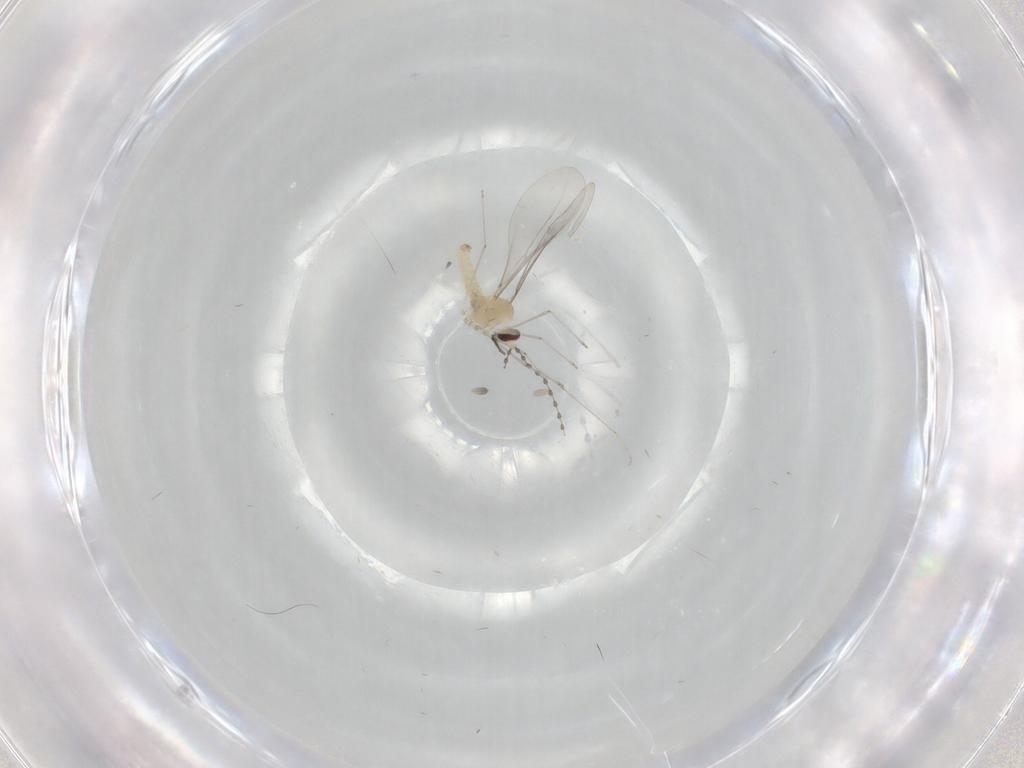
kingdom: Animalia
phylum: Arthropoda
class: Insecta
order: Diptera
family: Cecidomyiidae
